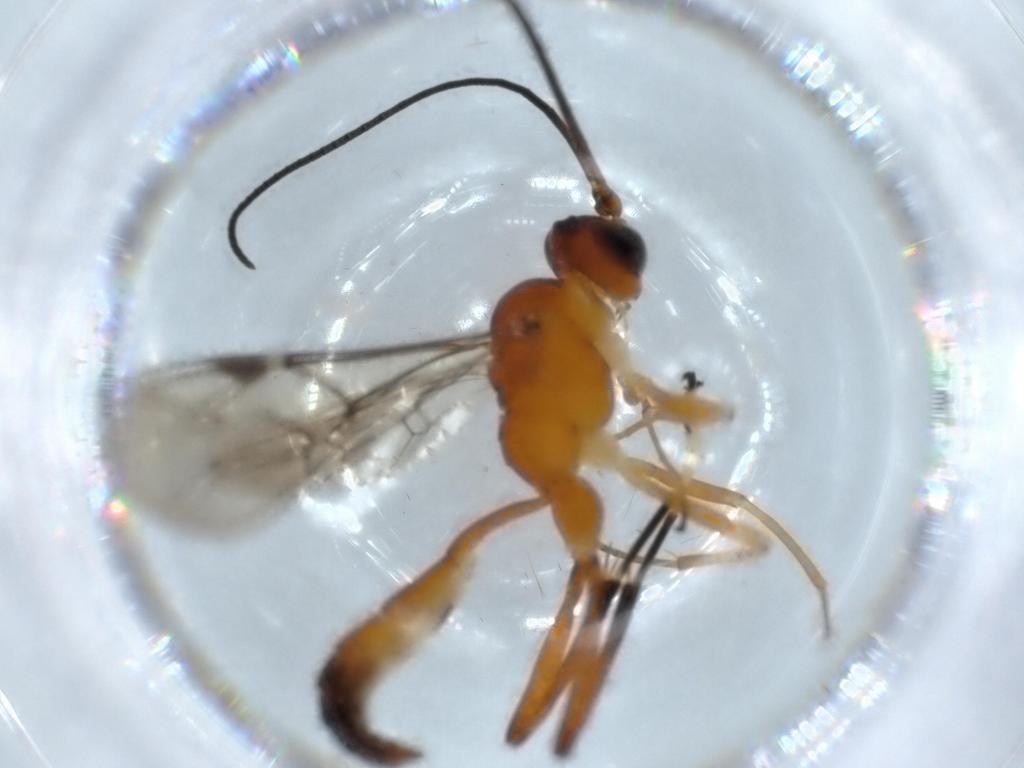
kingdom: Animalia
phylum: Arthropoda
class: Insecta
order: Hymenoptera
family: Ichneumonidae
